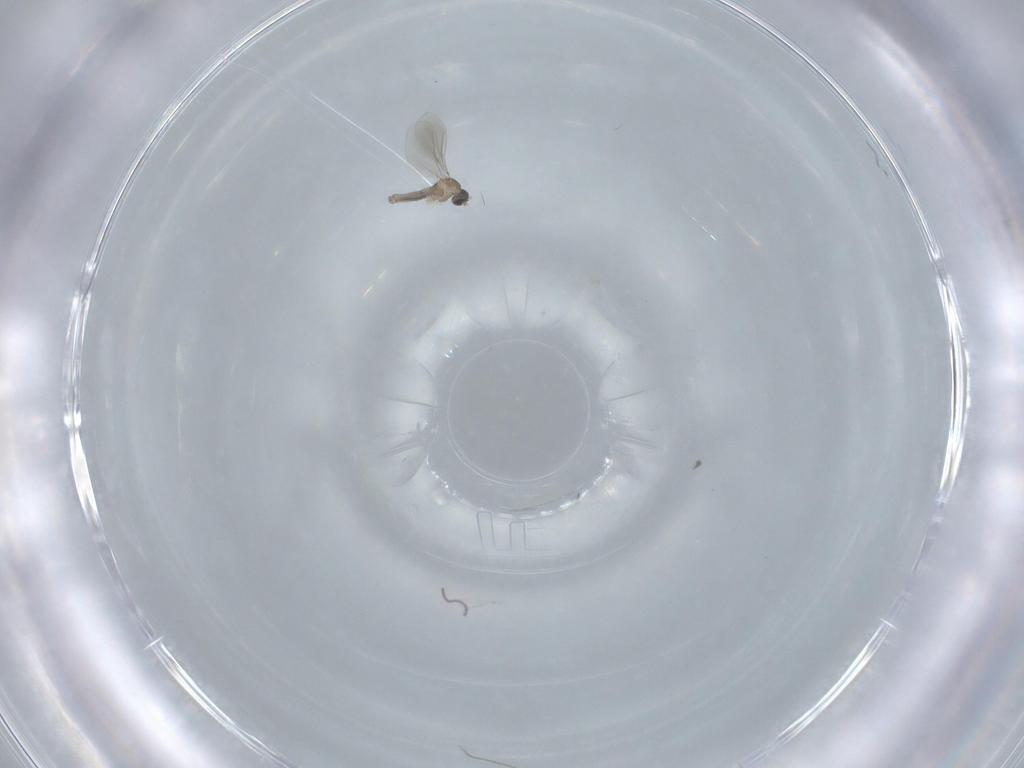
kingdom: Animalia
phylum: Arthropoda
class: Insecta
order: Diptera
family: Cecidomyiidae
